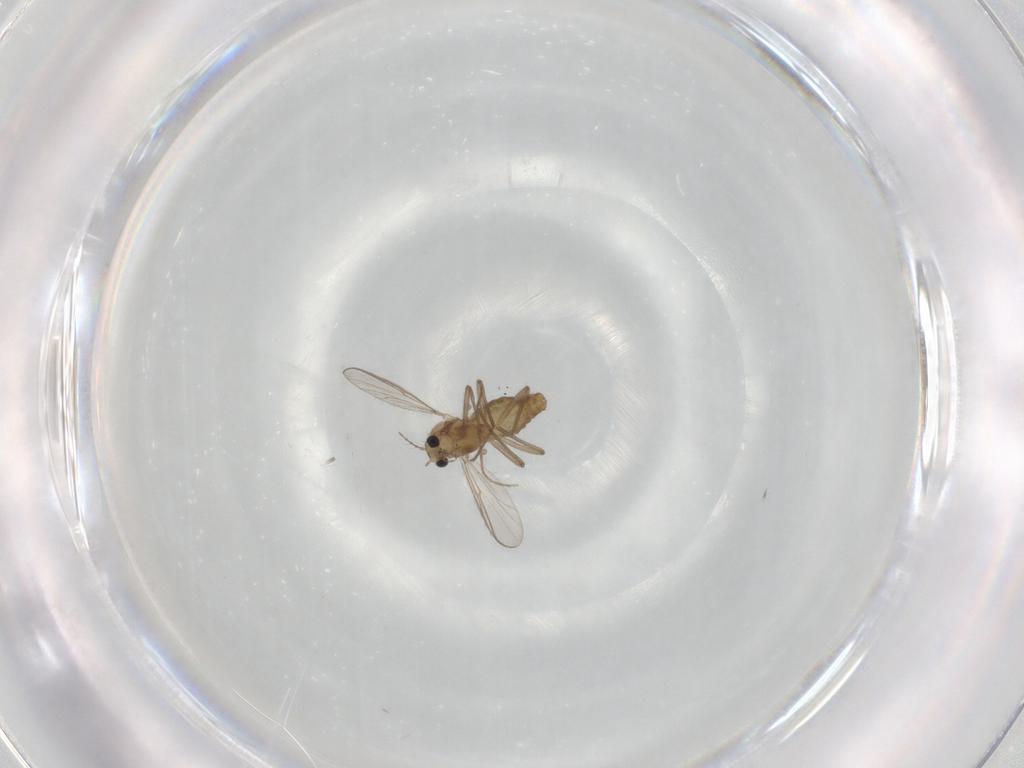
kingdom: Animalia
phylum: Arthropoda
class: Insecta
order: Diptera
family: Chironomidae
